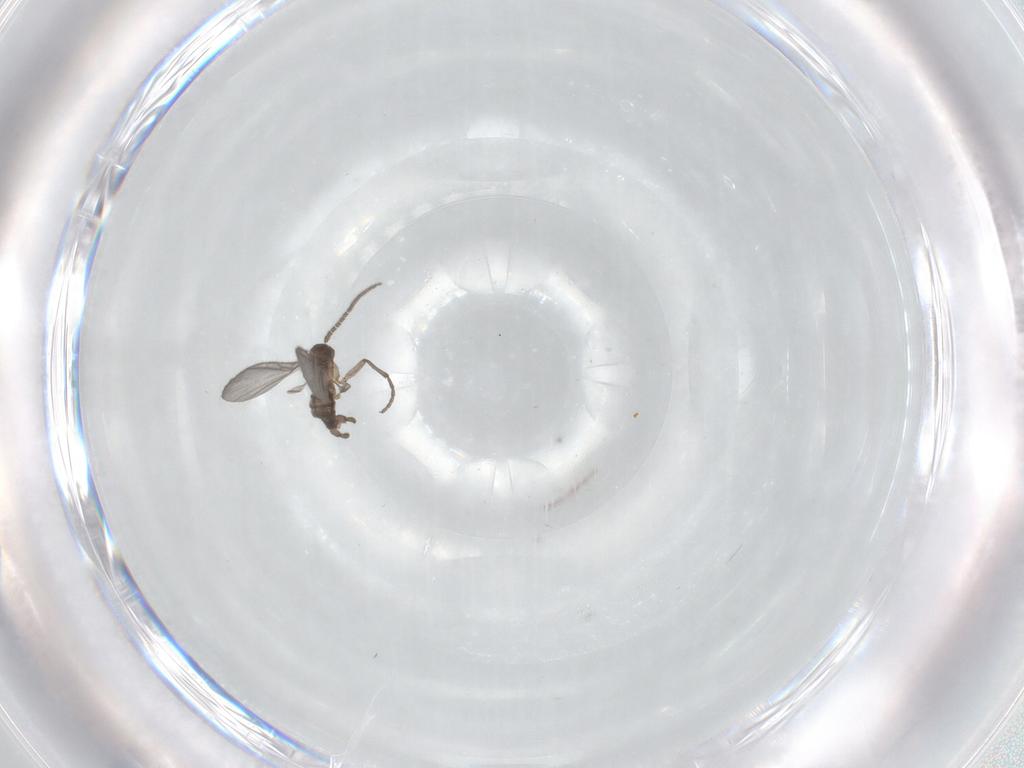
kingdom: Animalia
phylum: Arthropoda
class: Insecta
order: Diptera
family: Sciaridae
